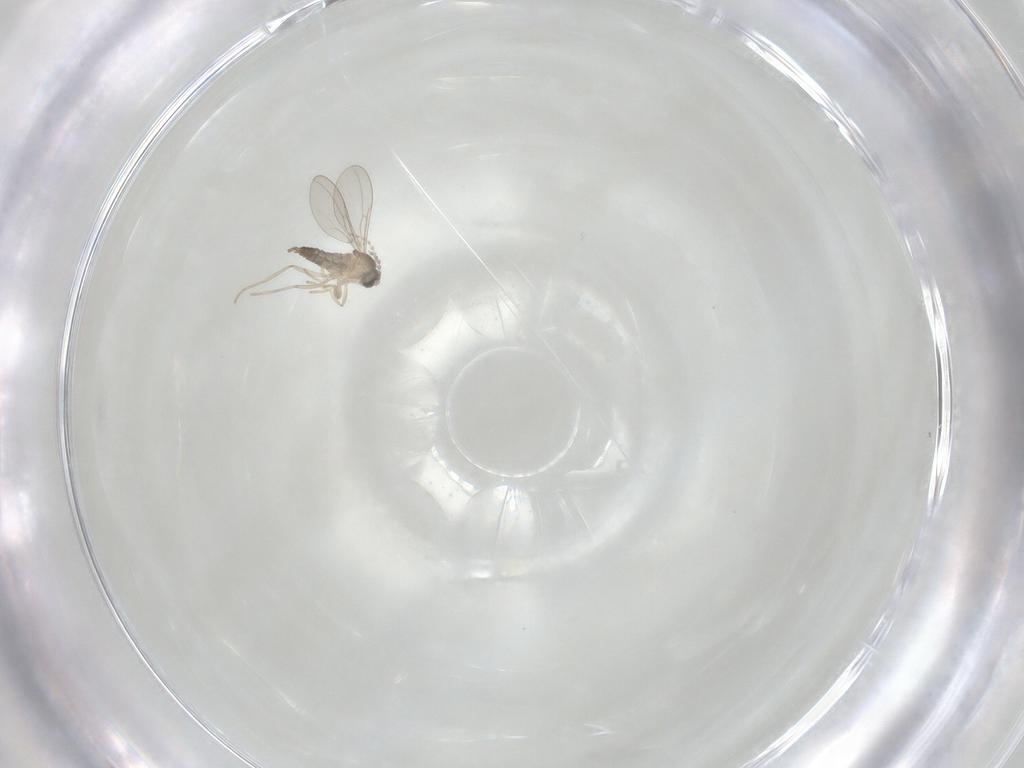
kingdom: Animalia
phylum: Arthropoda
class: Insecta
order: Diptera
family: Cecidomyiidae
